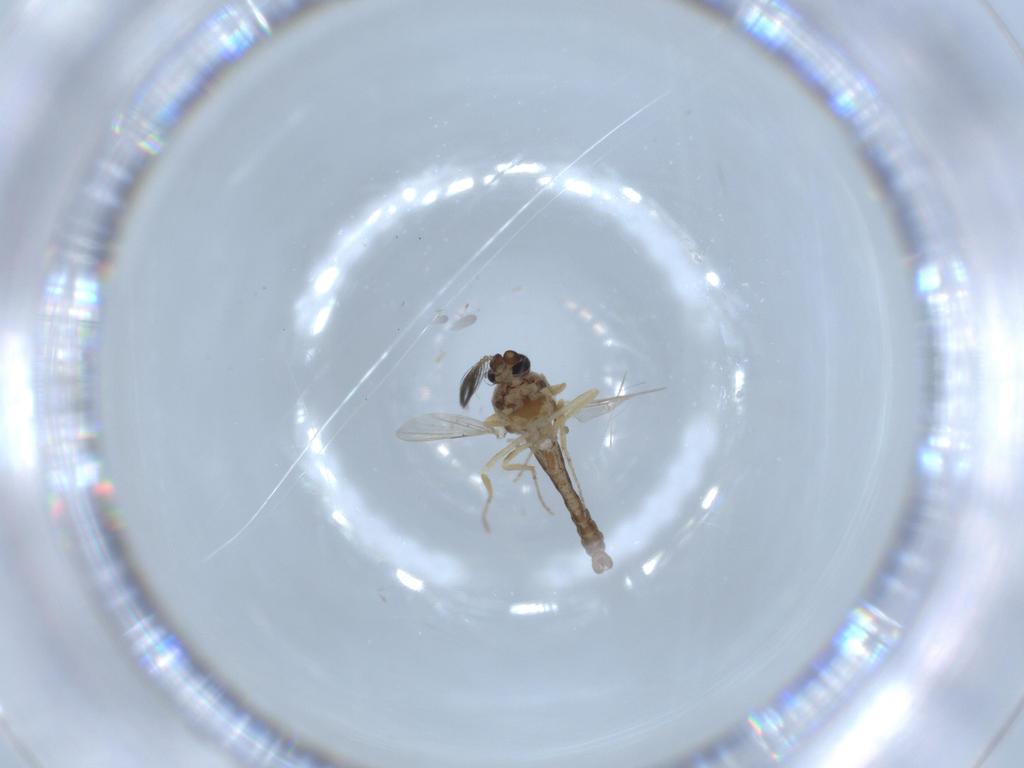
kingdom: Animalia
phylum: Arthropoda
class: Insecta
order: Diptera
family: Ceratopogonidae
